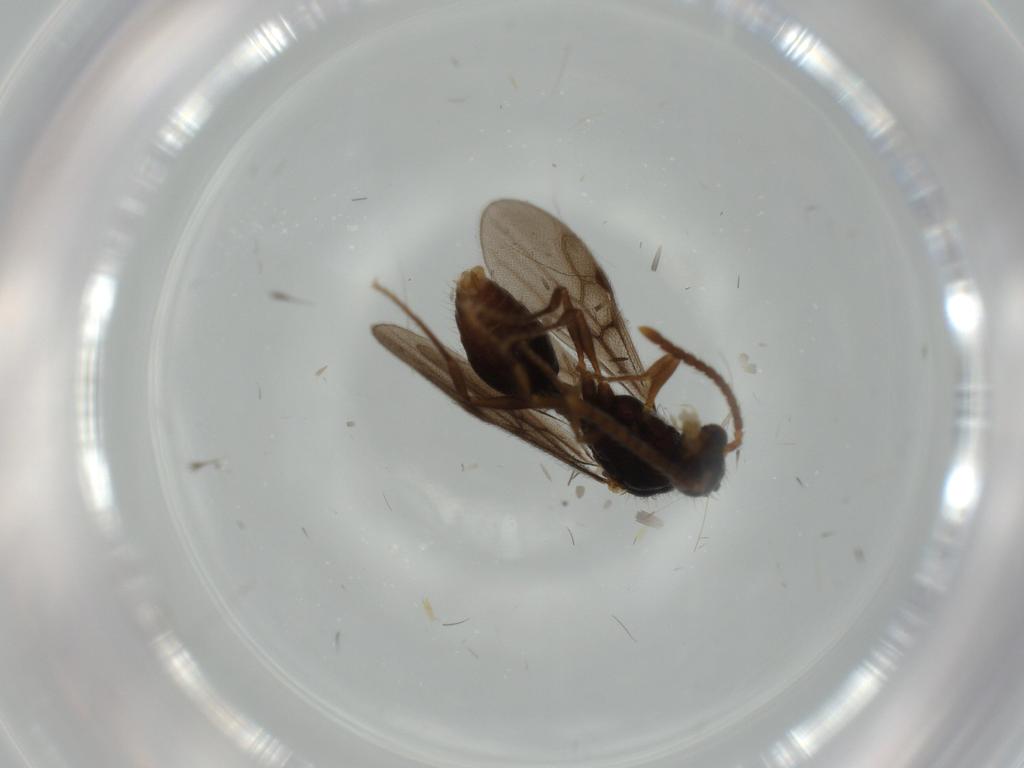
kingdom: Animalia
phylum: Arthropoda
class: Insecta
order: Hymenoptera
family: Formicidae
